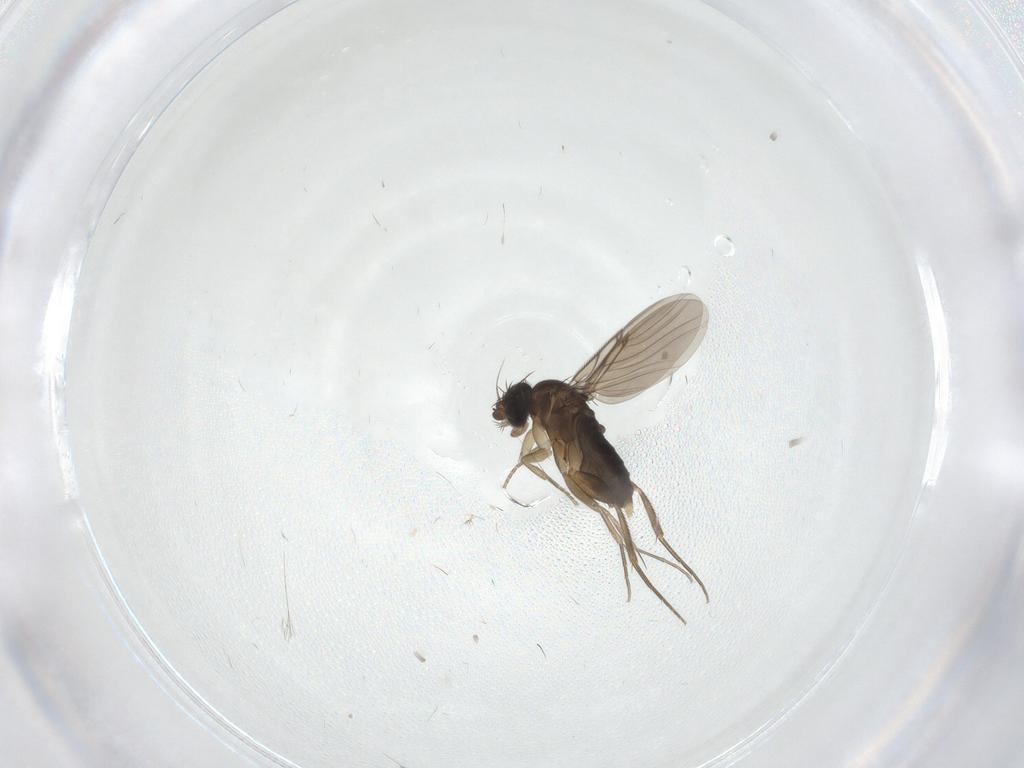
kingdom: Animalia
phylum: Arthropoda
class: Insecta
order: Diptera
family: Phoridae
